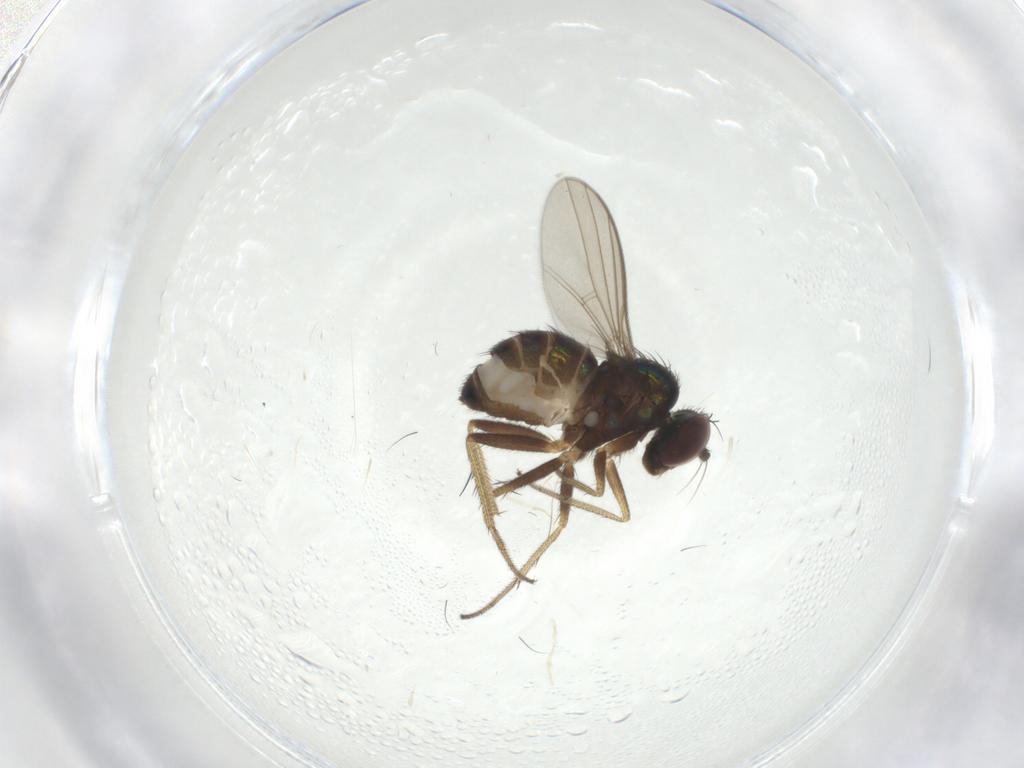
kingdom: Animalia
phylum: Arthropoda
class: Insecta
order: Diptera
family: Dolichopodidae
